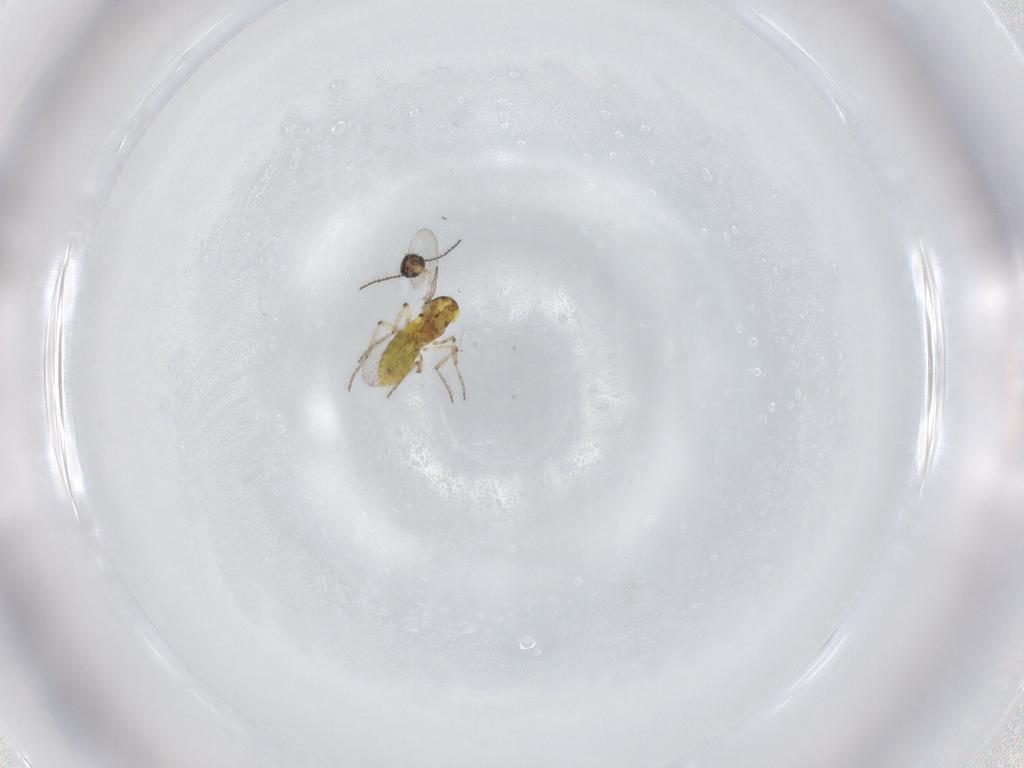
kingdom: Animalia
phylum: Arthropoda
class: Insecta
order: Diptera
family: Ceratopogonidae
